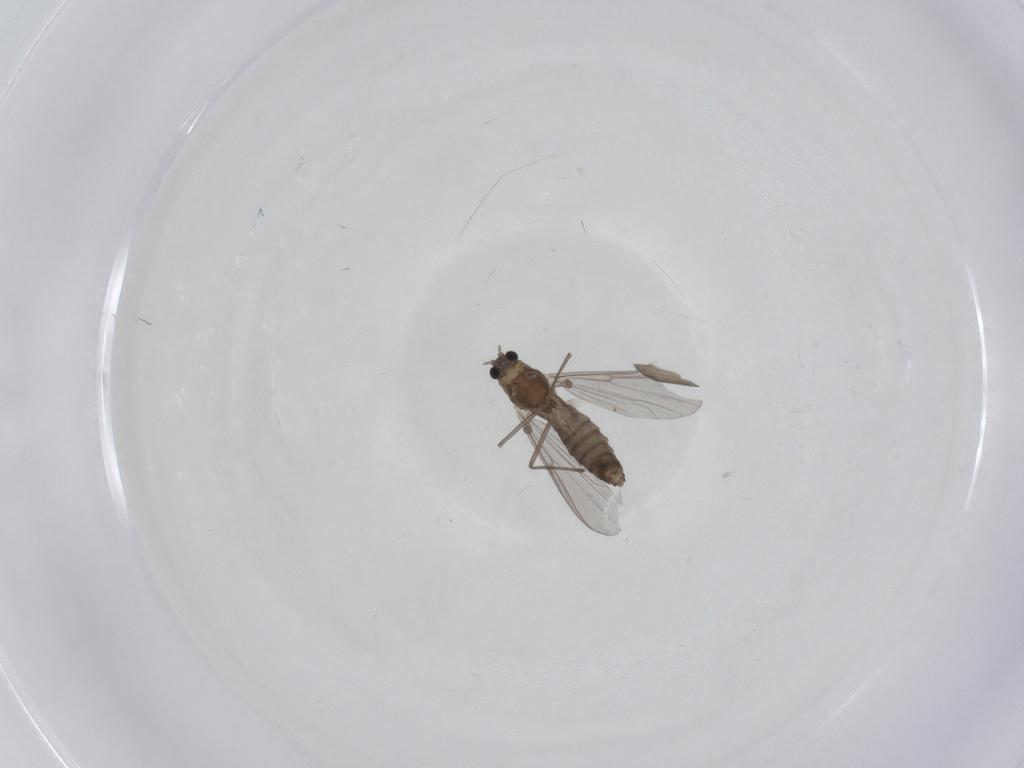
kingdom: Animalia
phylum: Arthropoda
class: Insecta
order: Diptera
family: Chironomidae
